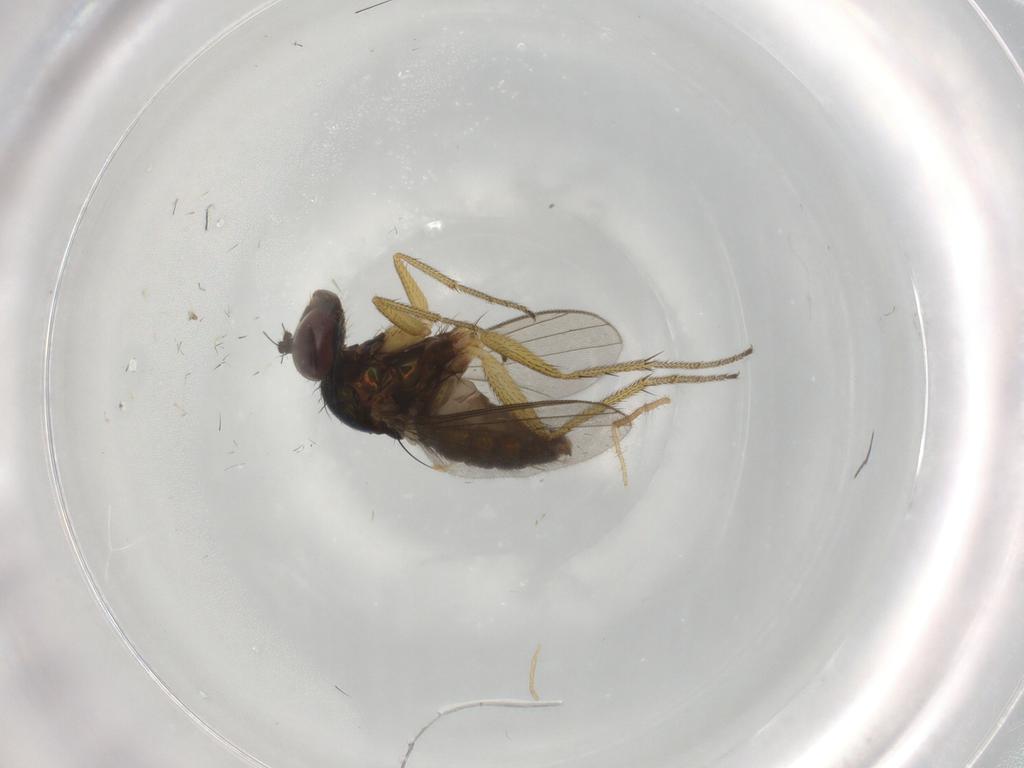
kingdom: Animalia
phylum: Arthropoda
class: Insecta
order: Diptera
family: Dolichopodidae
